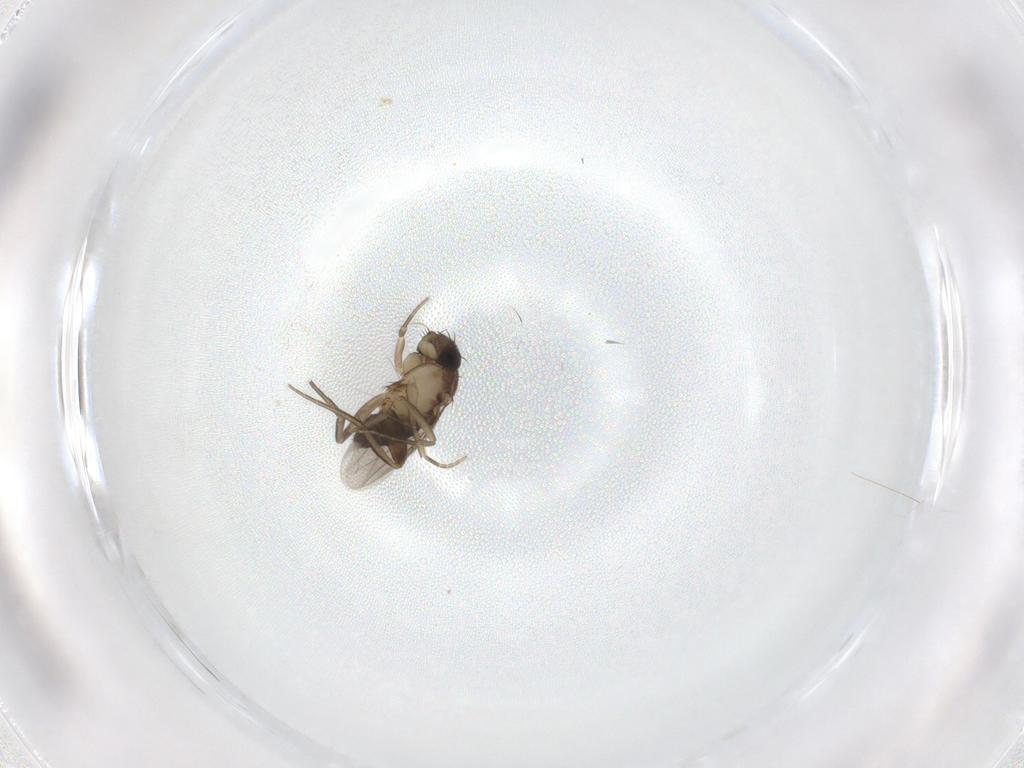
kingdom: Animalia
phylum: Arthropoda
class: Insecta
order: Diptera
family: Phoridae
